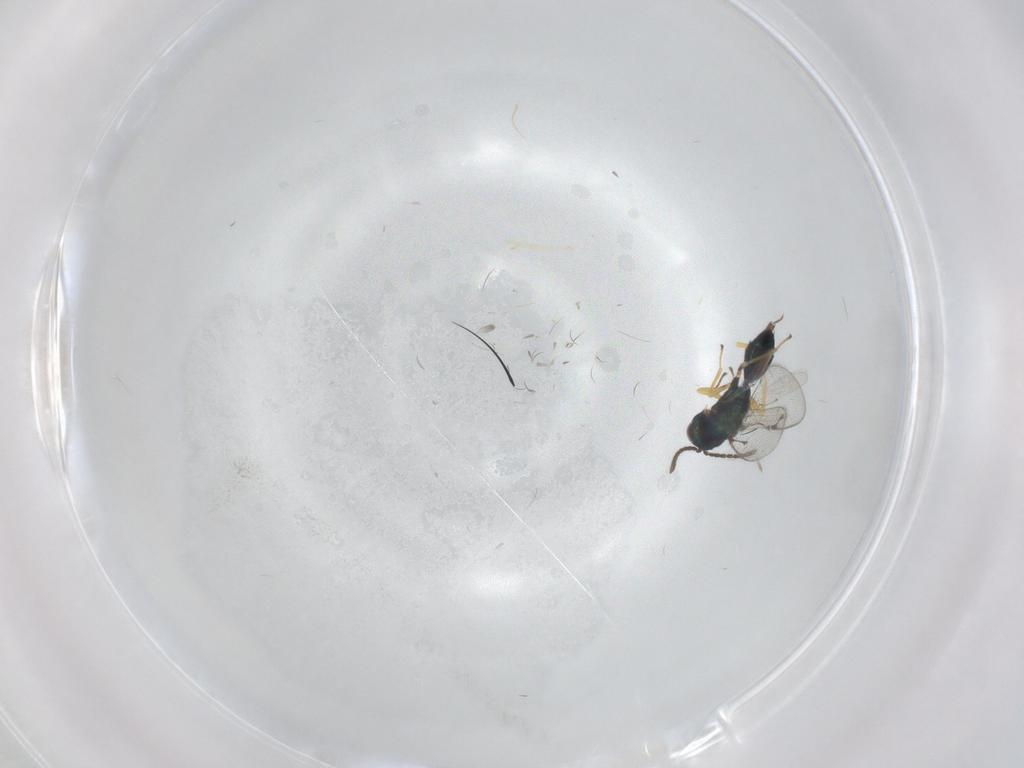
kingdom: Animalia
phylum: Arthropoda
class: Insecta
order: Hymenoptera
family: Pteromalidae
